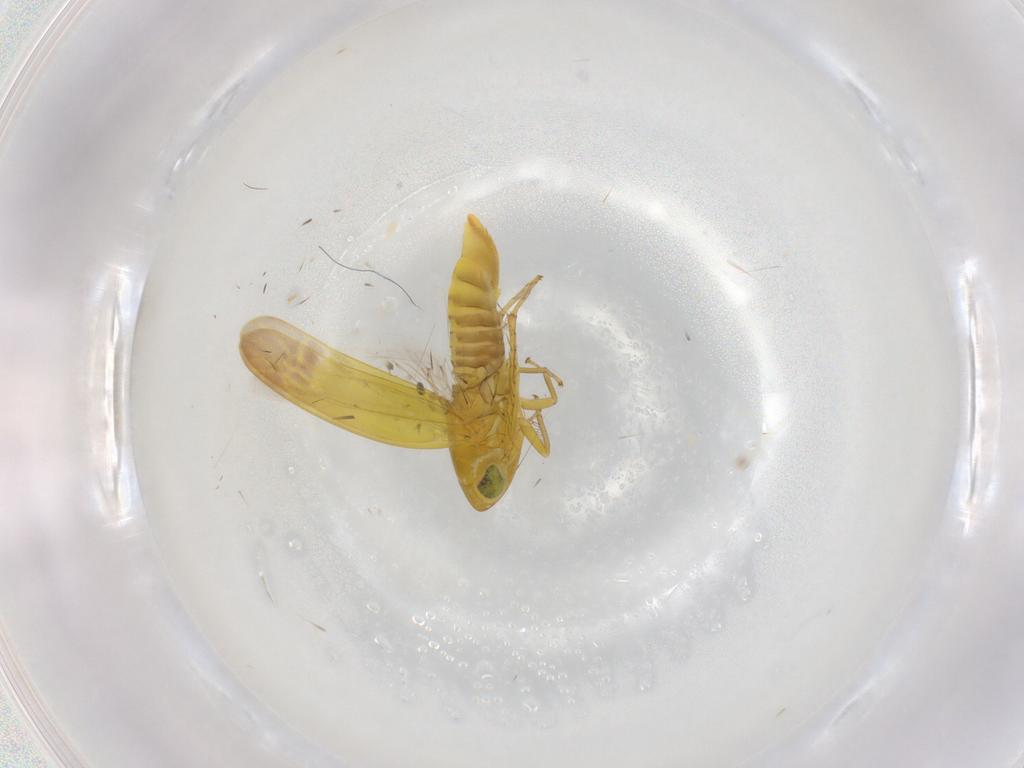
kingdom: Animalia
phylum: Arthropoda
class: Insecta
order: Hemiptera
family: Cicadellidae
